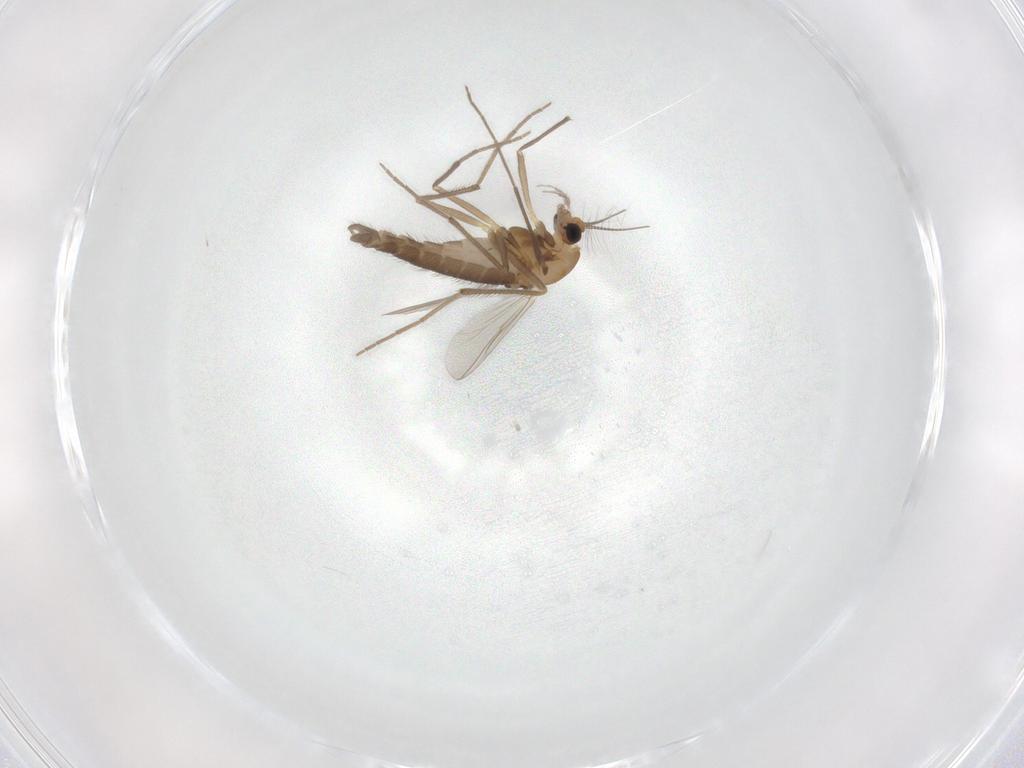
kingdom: Animalia
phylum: Arthropoda
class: Insecta
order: Diptera
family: Chironomidae
